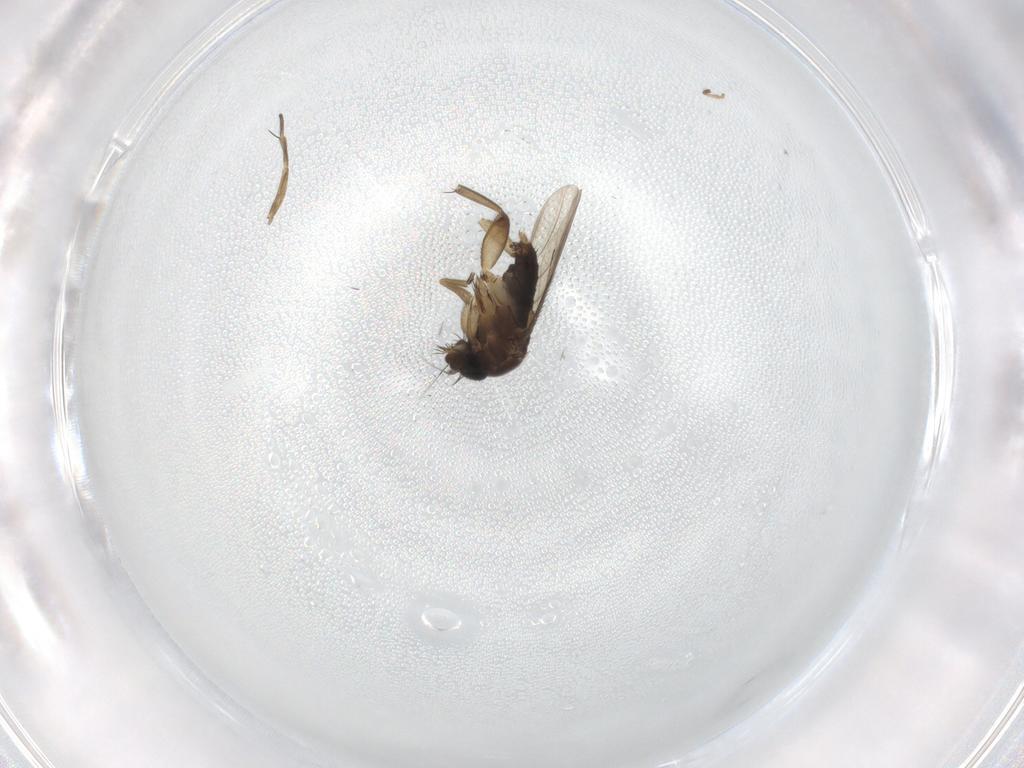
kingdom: Animalia
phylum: Arthropoda
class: Insecta
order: Diptera
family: Phoridae
